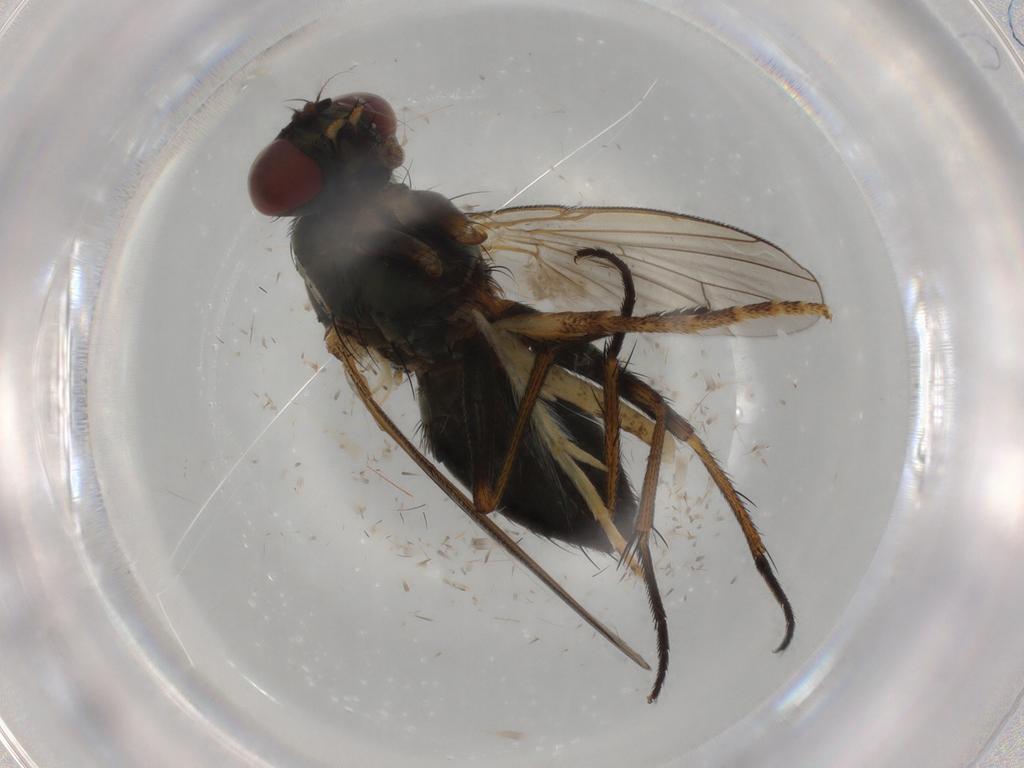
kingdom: Animalia
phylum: Arthropoda
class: Insecta
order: Diptera
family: Muscidae
